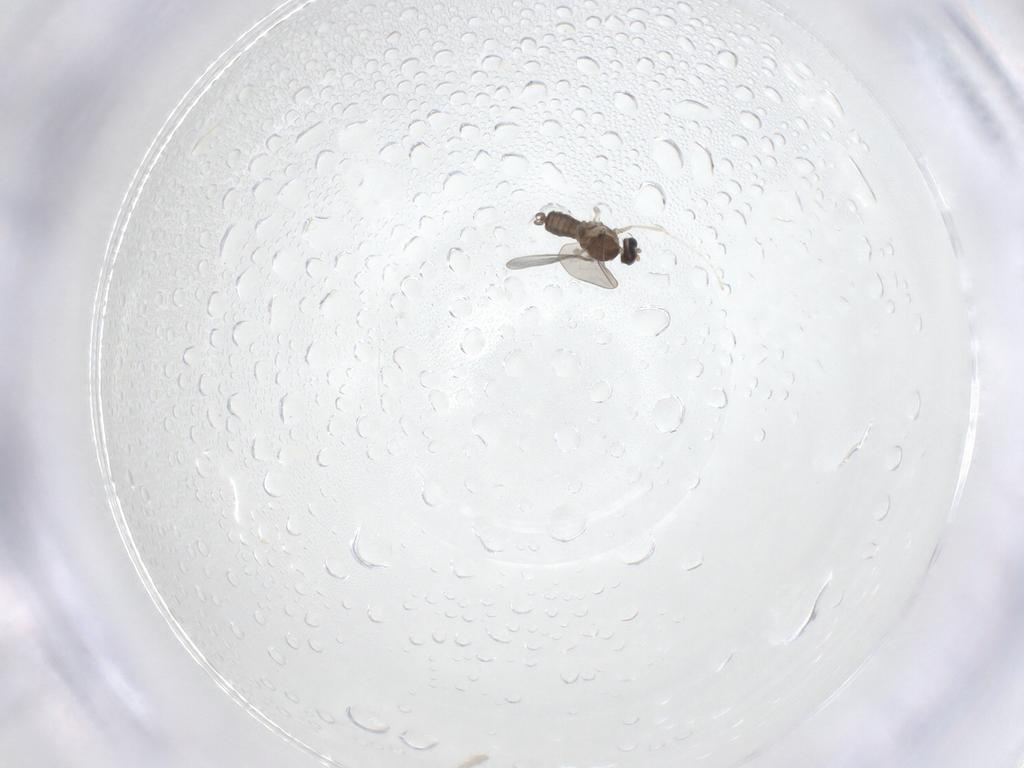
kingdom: Animalia
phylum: Arthropoda
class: Insecta
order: Diptera
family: Cecidomyiidae
